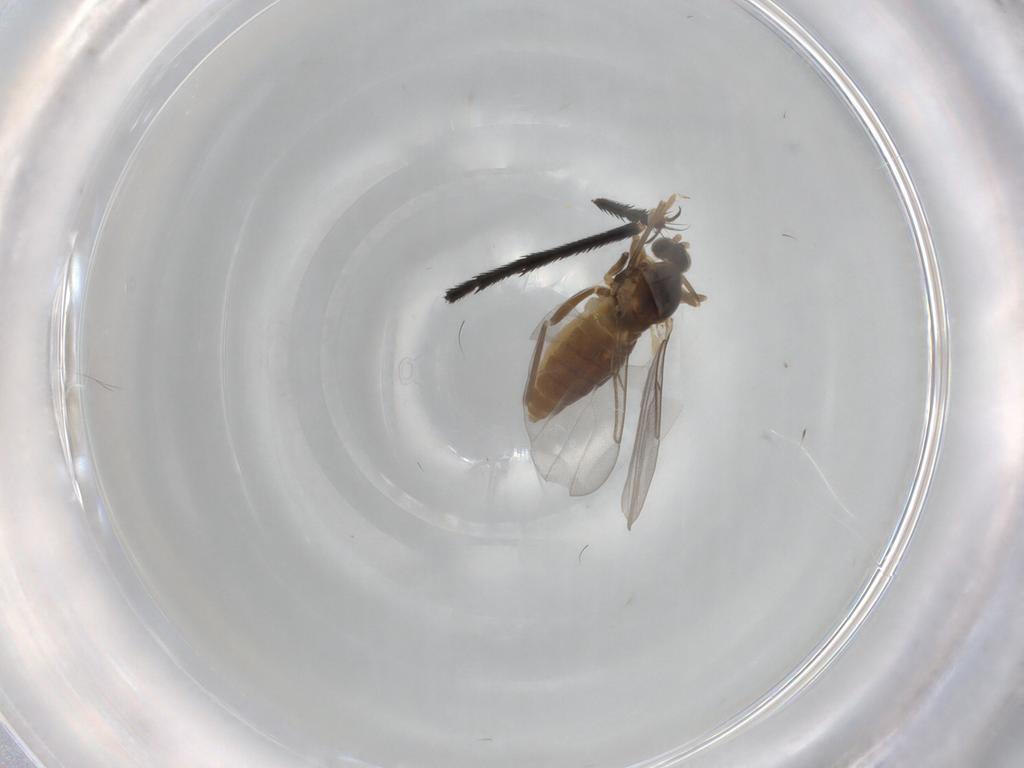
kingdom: Animalia
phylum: Arthropoda
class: Insecta
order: Diptera
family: Cecidomyiidae
